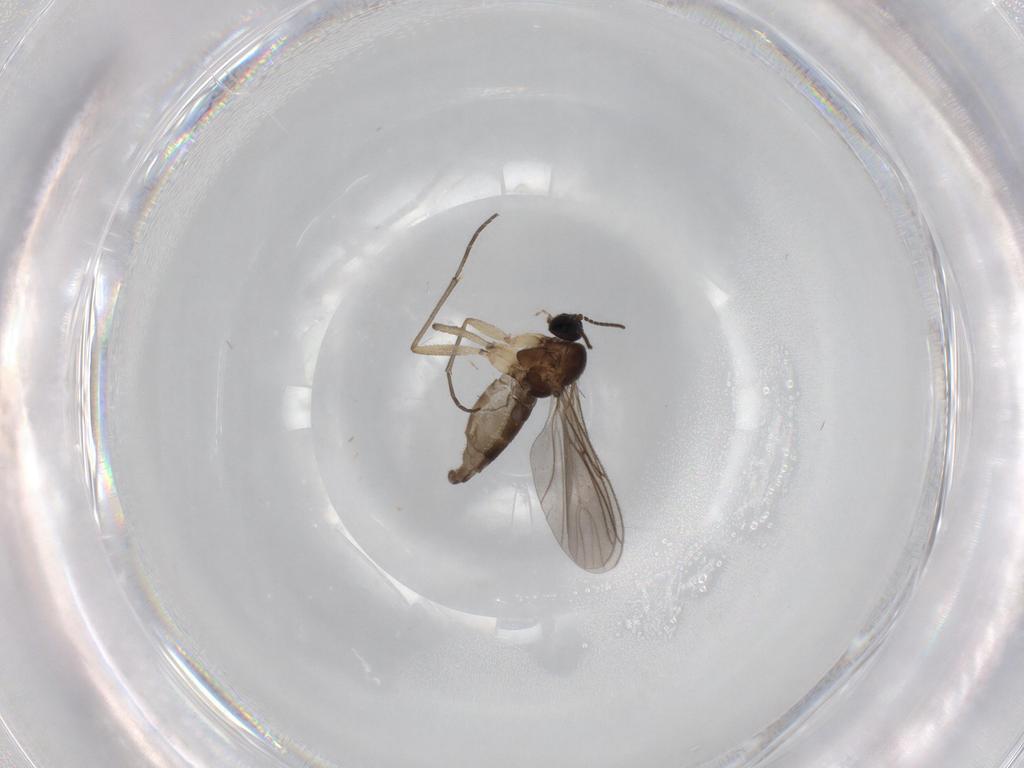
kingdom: Animalia
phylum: Arthropoda
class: Insecta
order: Diptera
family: Sciaridae
